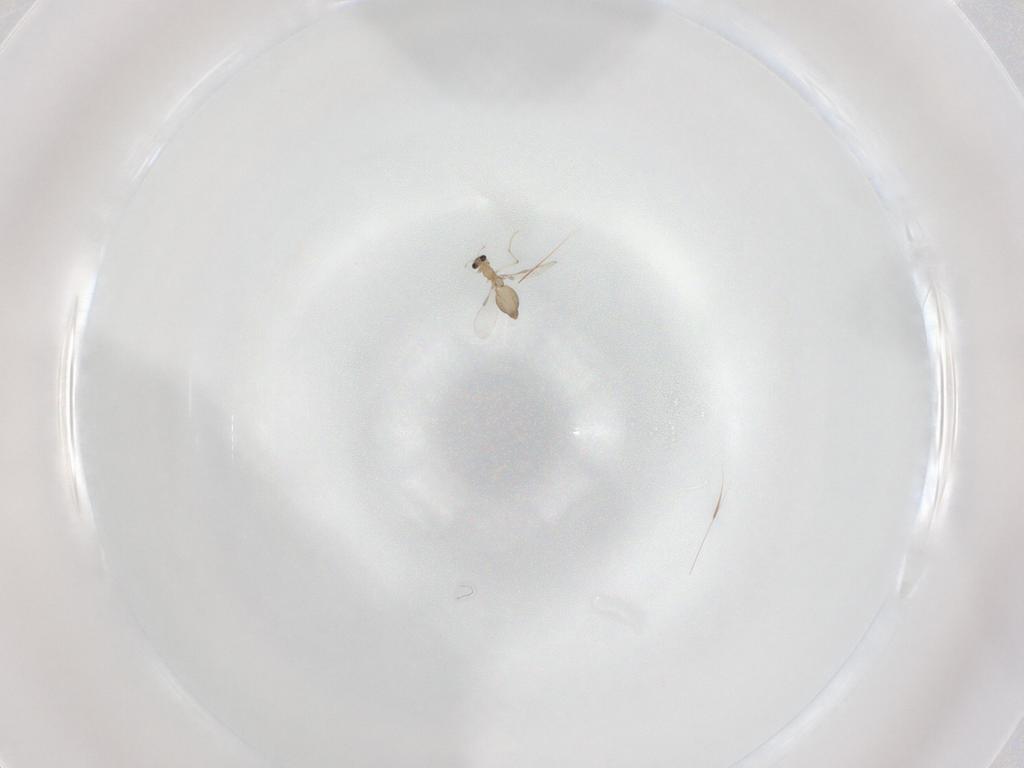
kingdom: Animalia
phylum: Arthropoda
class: Insecta
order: Diptera
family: Chironomidae
